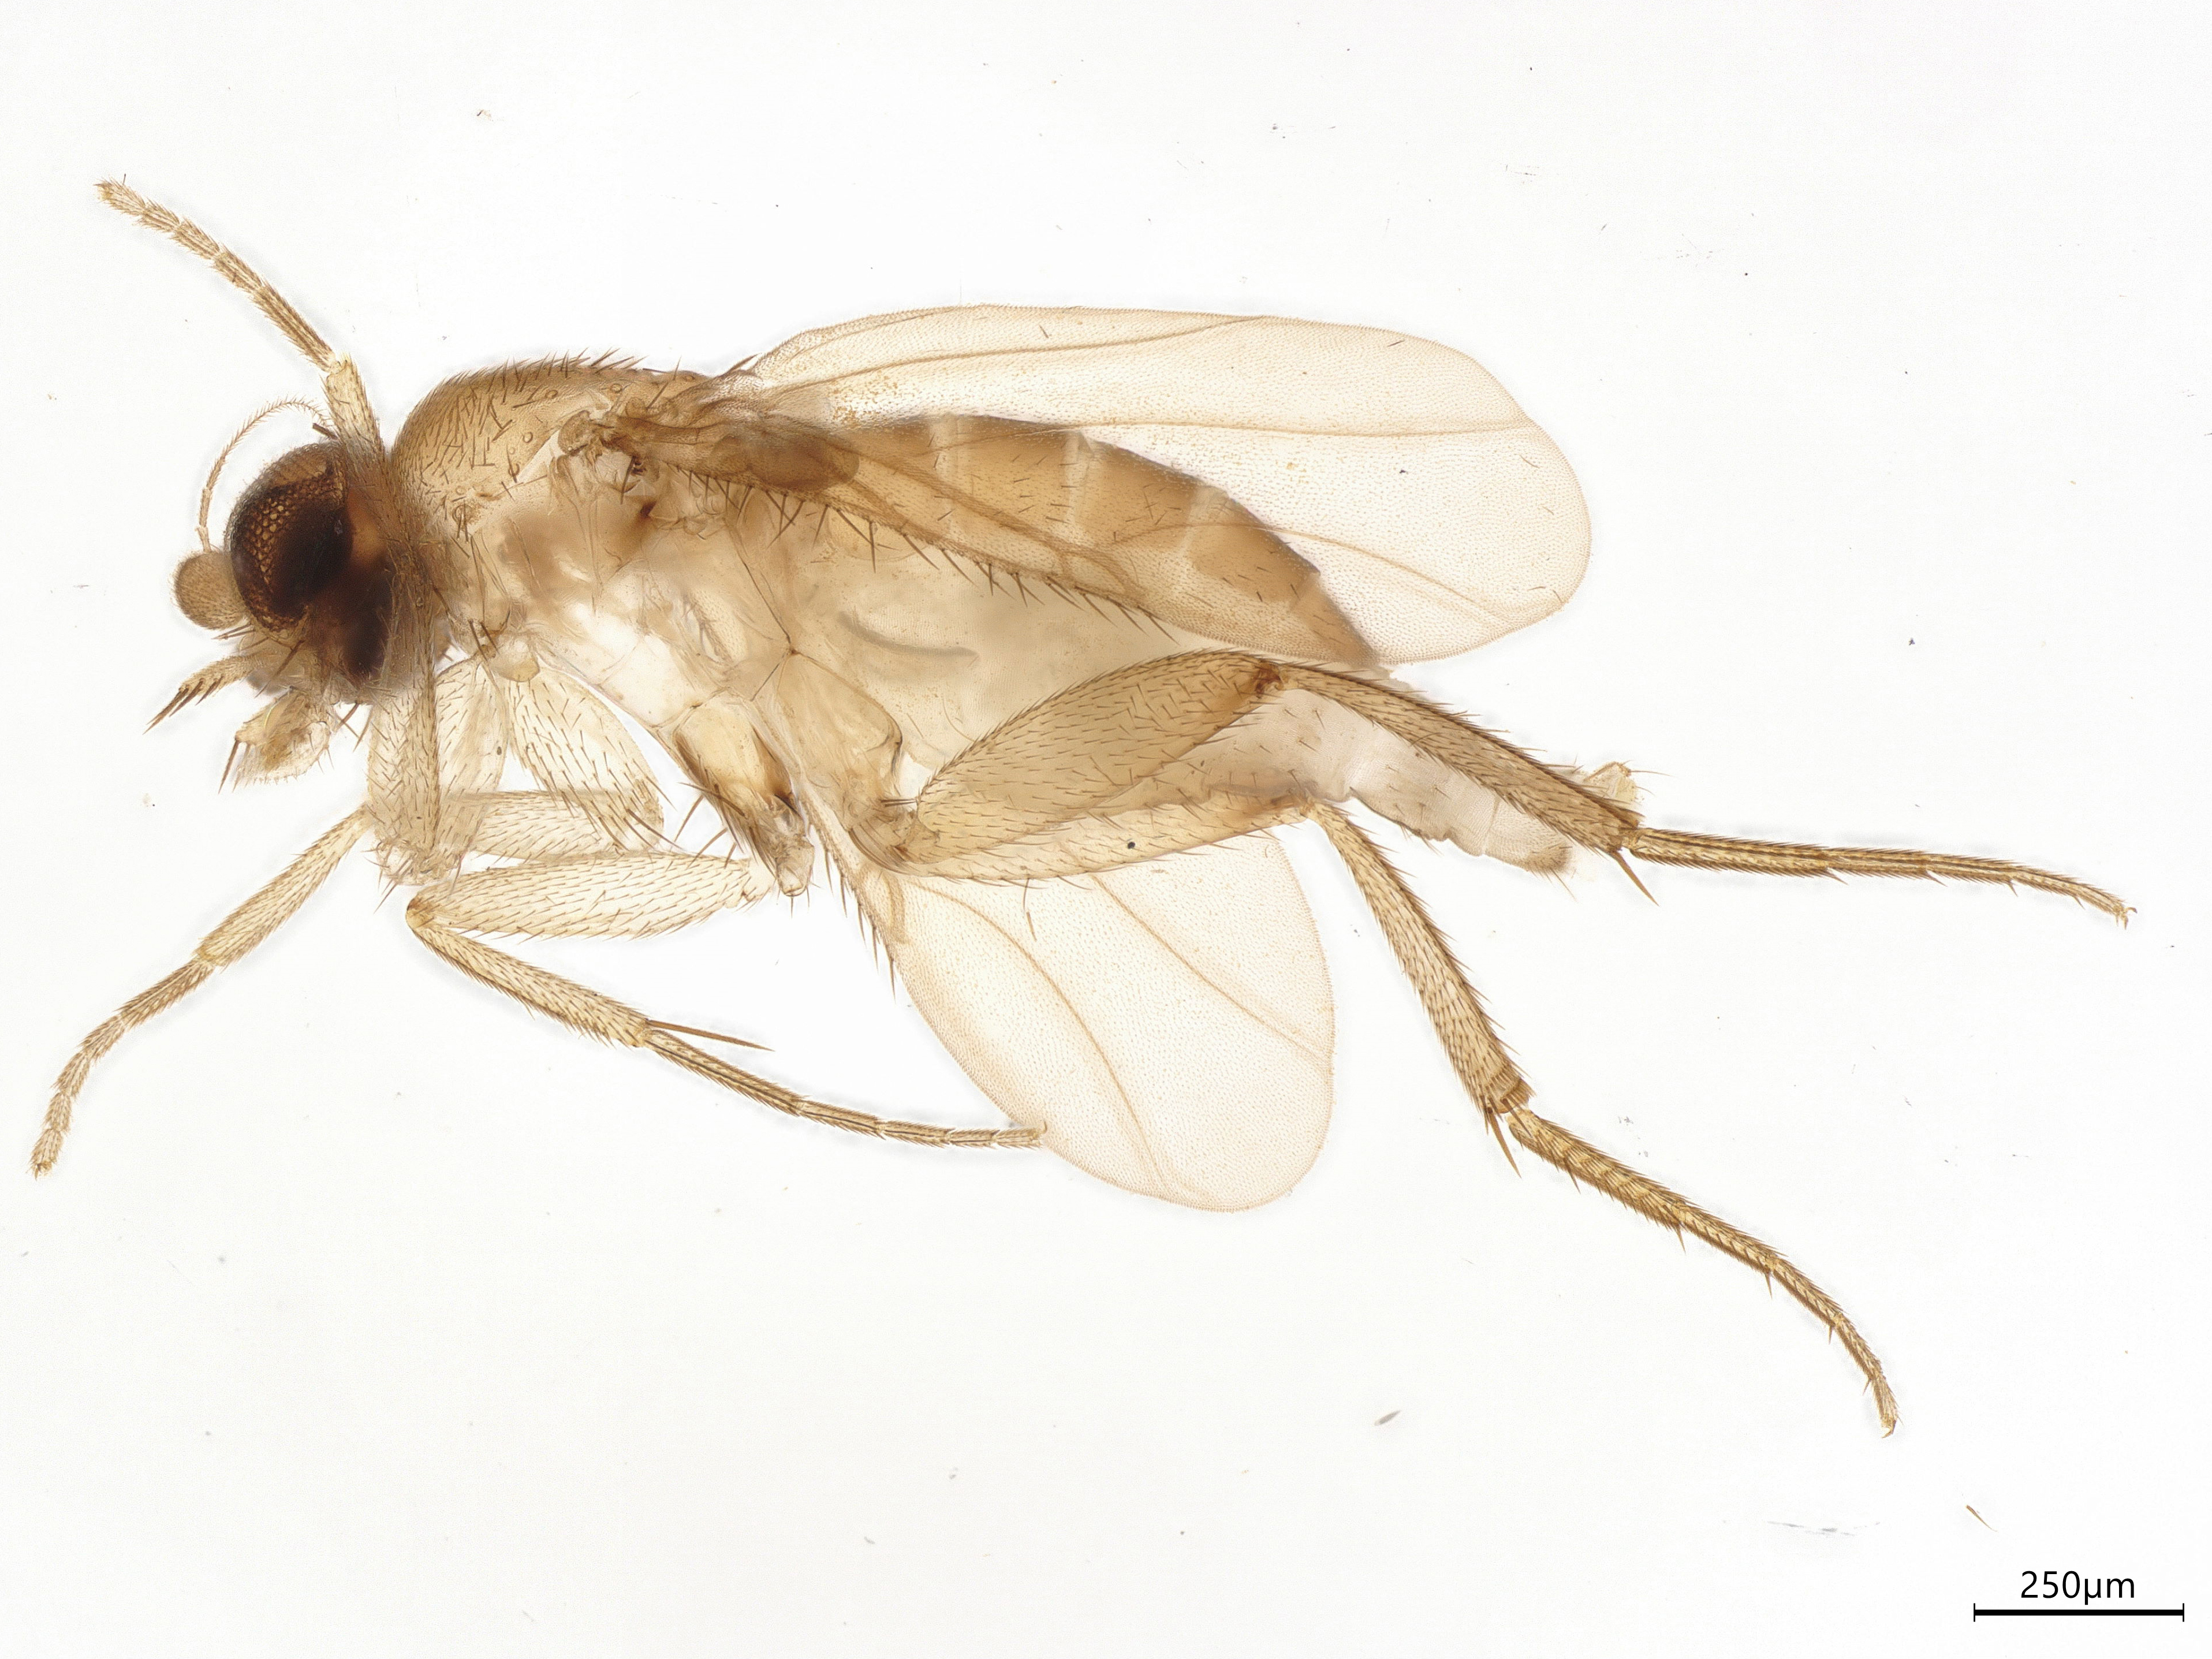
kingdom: Animalia
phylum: Arthropoda
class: Insecta
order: Diptera
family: Phoridae
